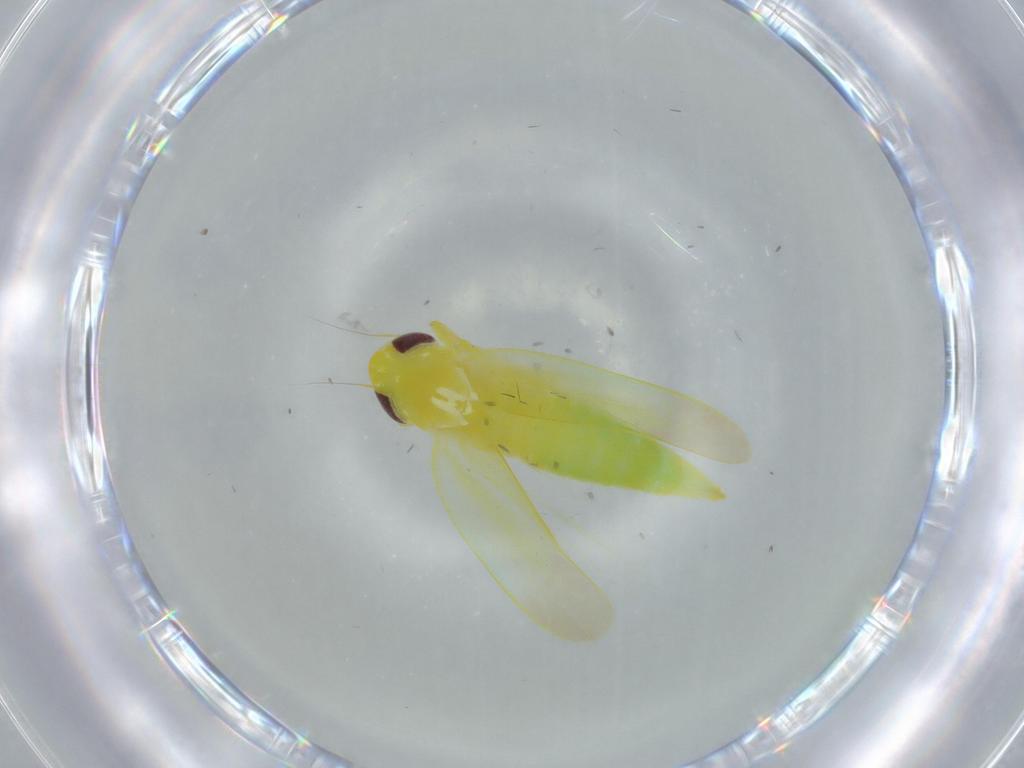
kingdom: Animalia
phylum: Arthropoda
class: Insecta
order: Hemiptera
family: Cicadellidae
